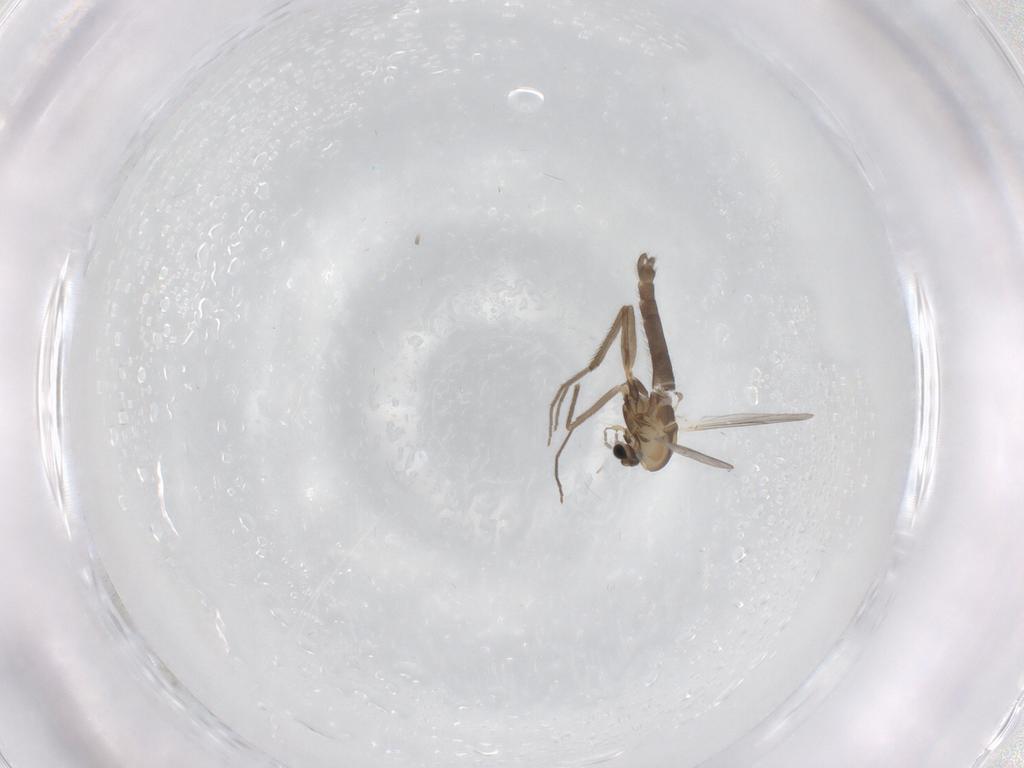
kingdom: Animalia
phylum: Arthropoda
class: Insecta
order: Diptera
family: Chironomidae
